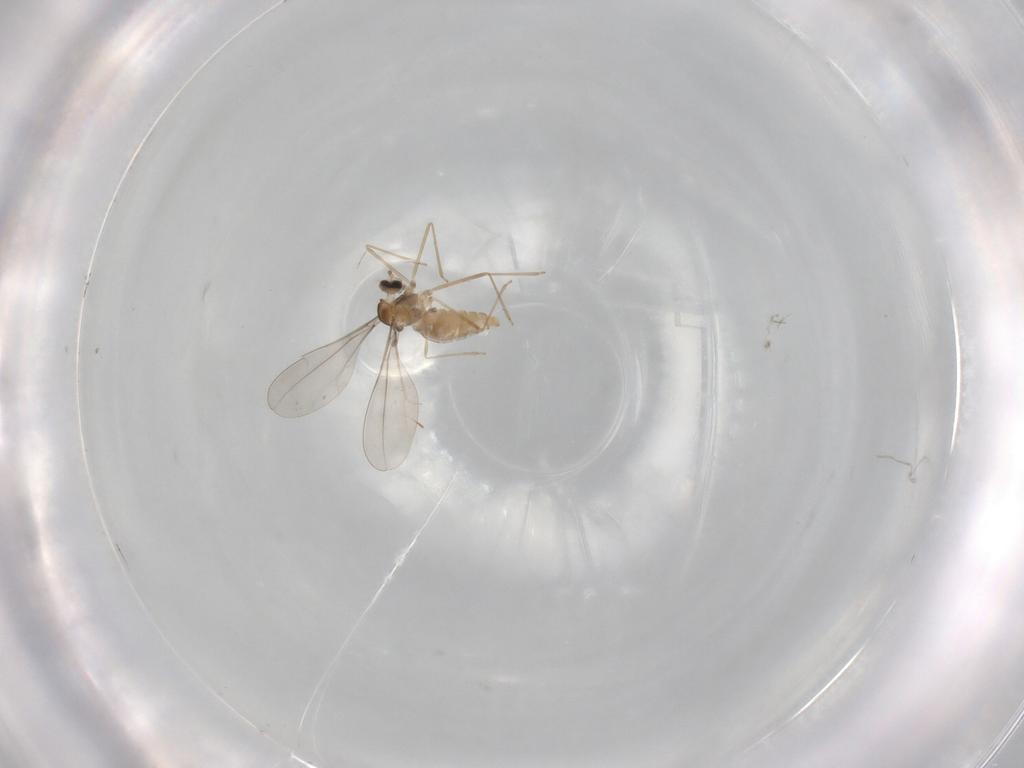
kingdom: Animalia
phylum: Arthropoda
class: Insecta
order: Diptera
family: Cecidomyiidae
